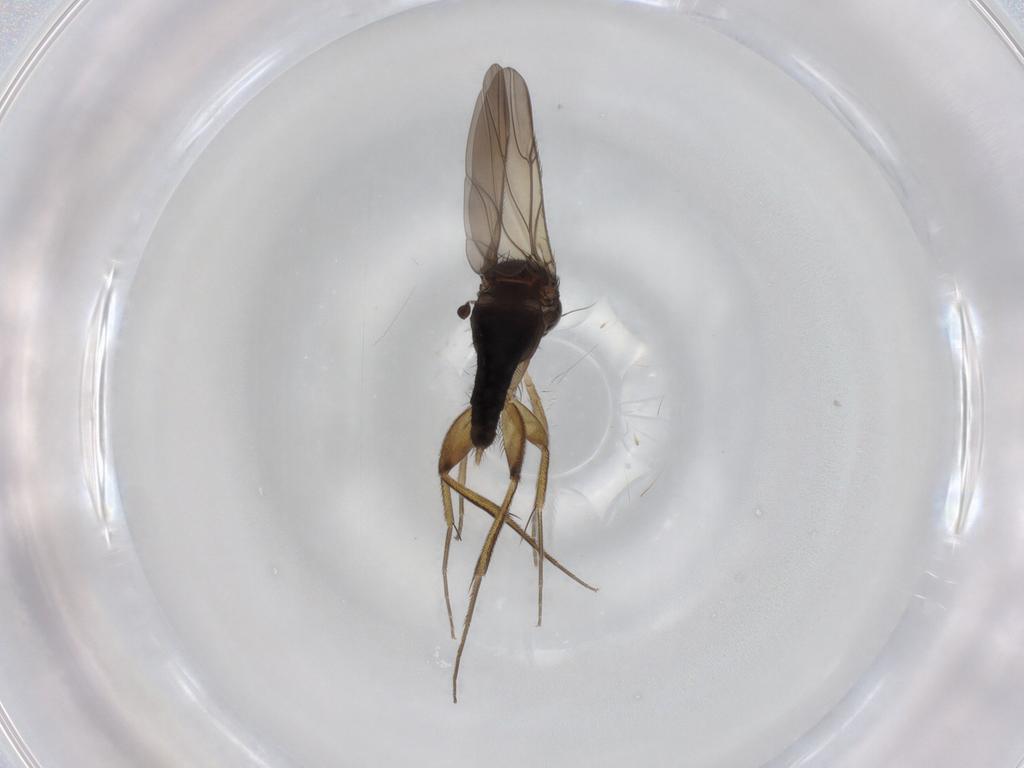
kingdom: Animalia
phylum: Arthropoda
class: Insecta
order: Diptera
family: Phoridae
